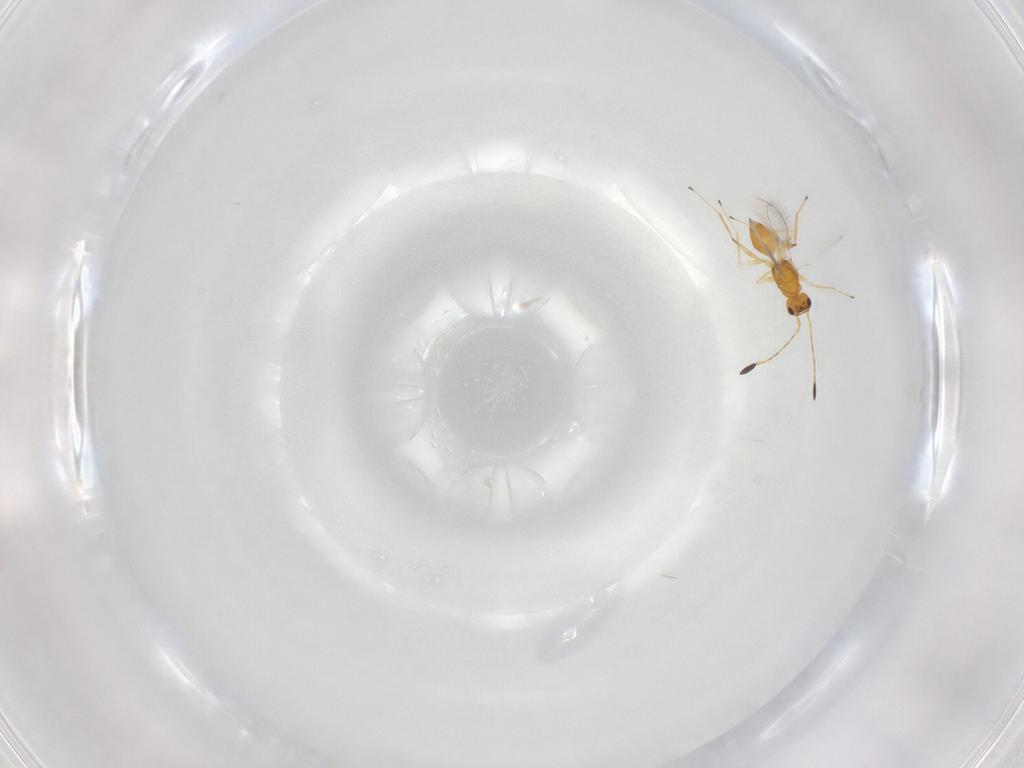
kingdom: Animalia
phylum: Arthropoda
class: Insecta
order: Hymenoptera
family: Mymaridae
